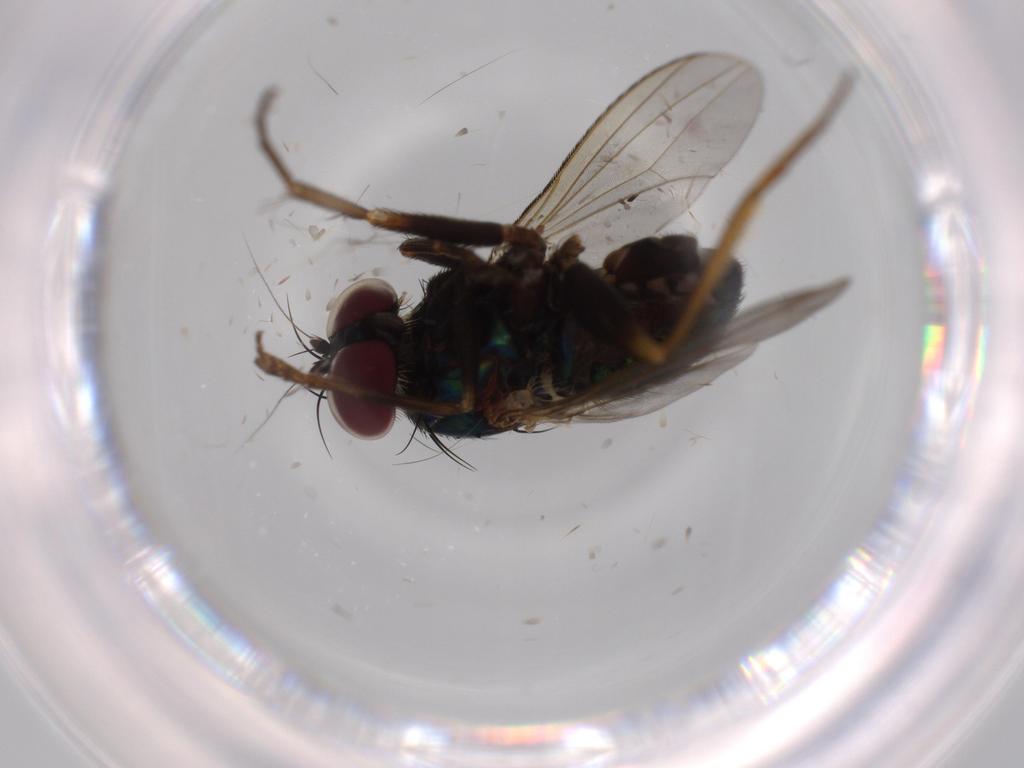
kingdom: Animalia
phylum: Arthropoda
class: Insecta
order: Diptera
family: Dolichopodidae
